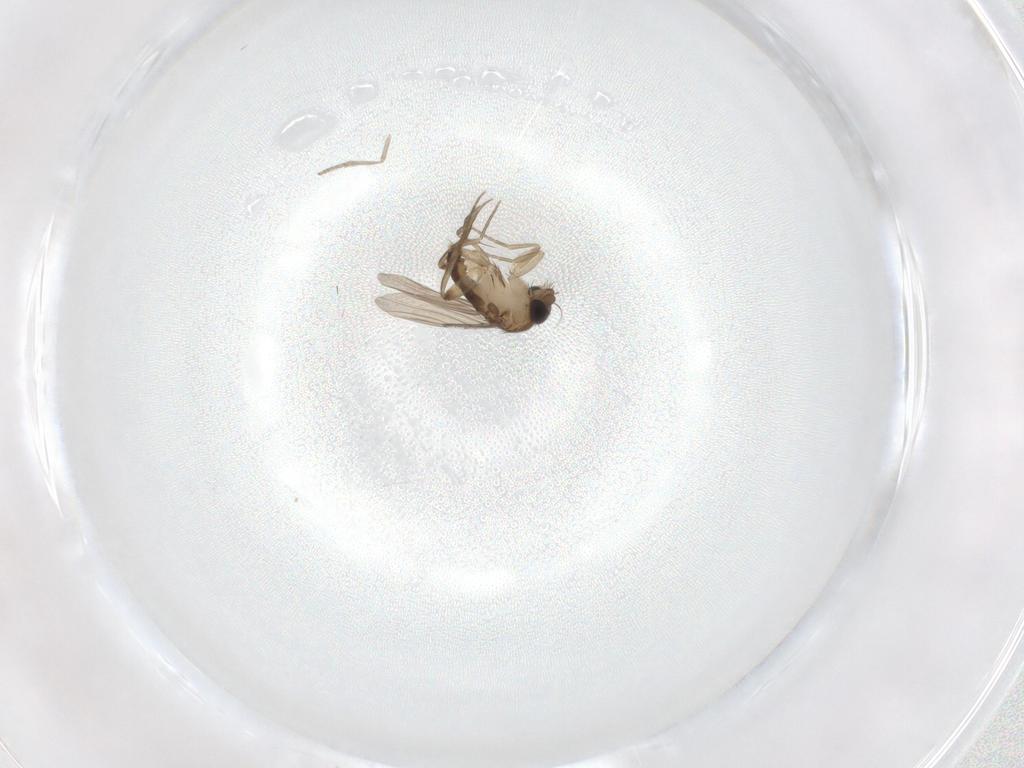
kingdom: Animalia
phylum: Arthropoda
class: Insecta
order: Diptera
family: Phoridae
